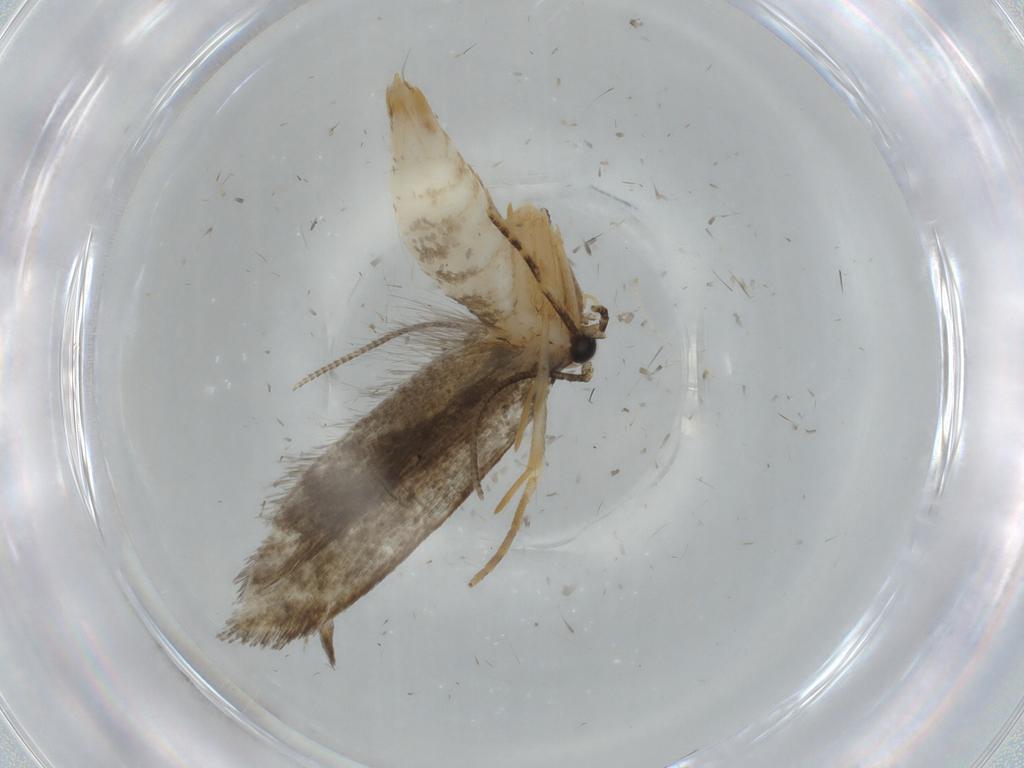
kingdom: Animalia
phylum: Arthropoda
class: Insecta
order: Lepidoptera
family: Tineidae
